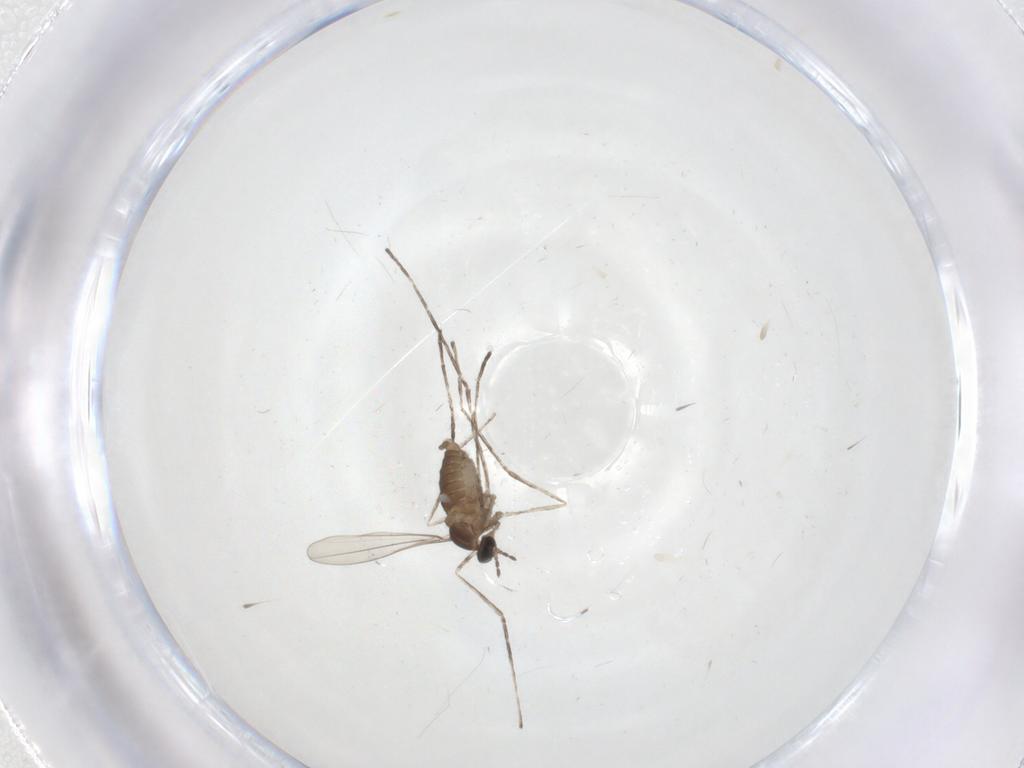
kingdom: Animalia
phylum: Arthropoda
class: Insecta
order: Diptera
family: Cecidomyiidae
